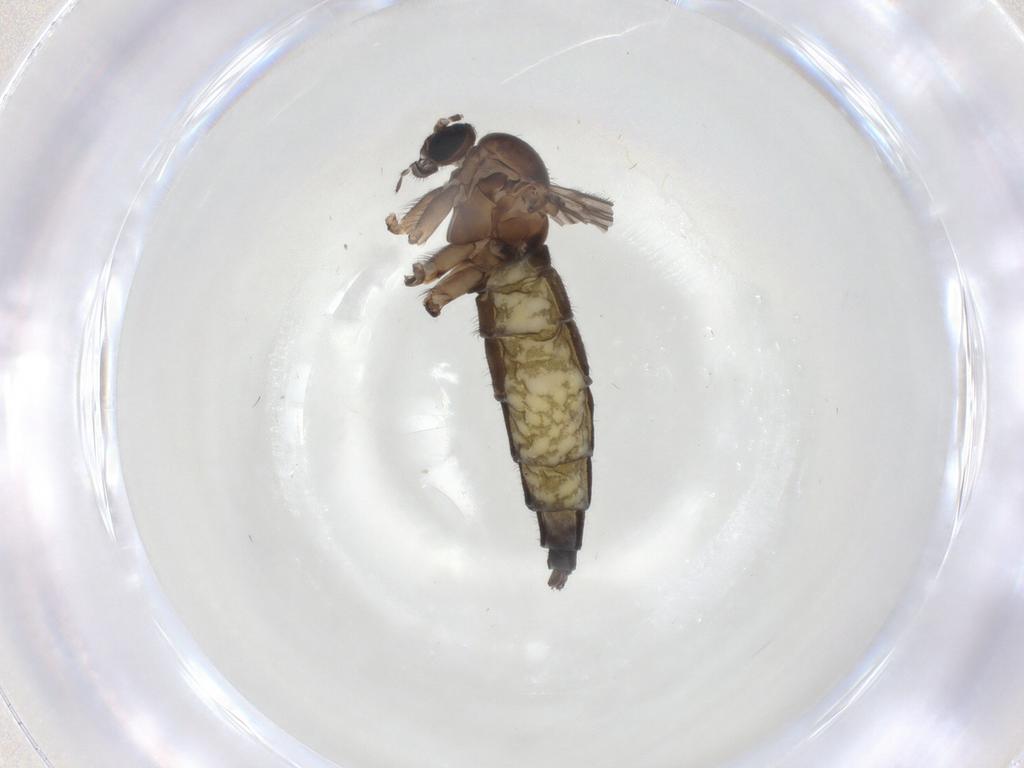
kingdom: Animalia
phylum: Arthropoda
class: Insecta
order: Diptera
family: Sciaridae
